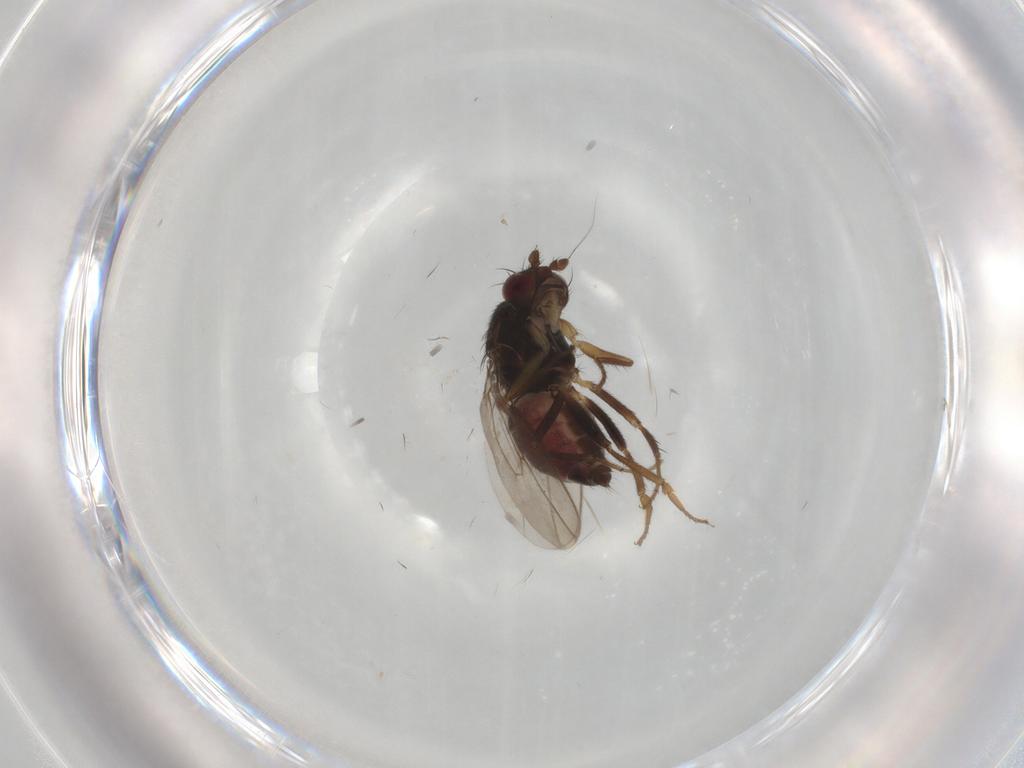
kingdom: Animalia
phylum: Arthropoda
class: Insecta
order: Diptera
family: Sphaeroceridae
